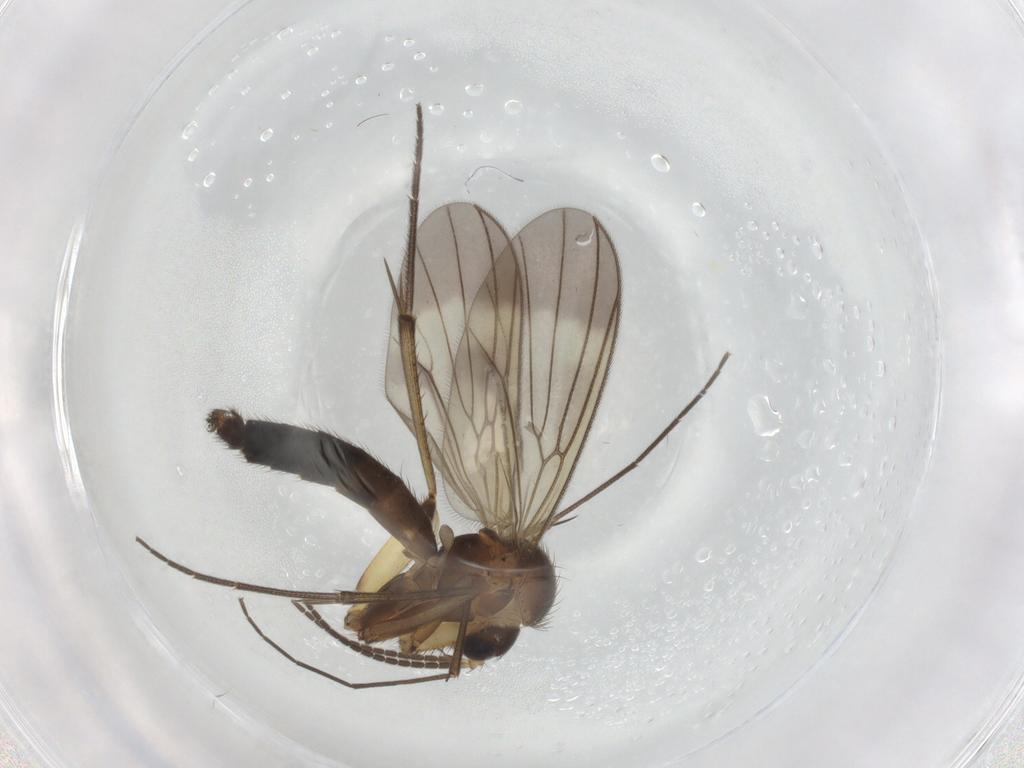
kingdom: Animalia
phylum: Arthropoda
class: Insecta
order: Diptera
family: Mycetophilidae
